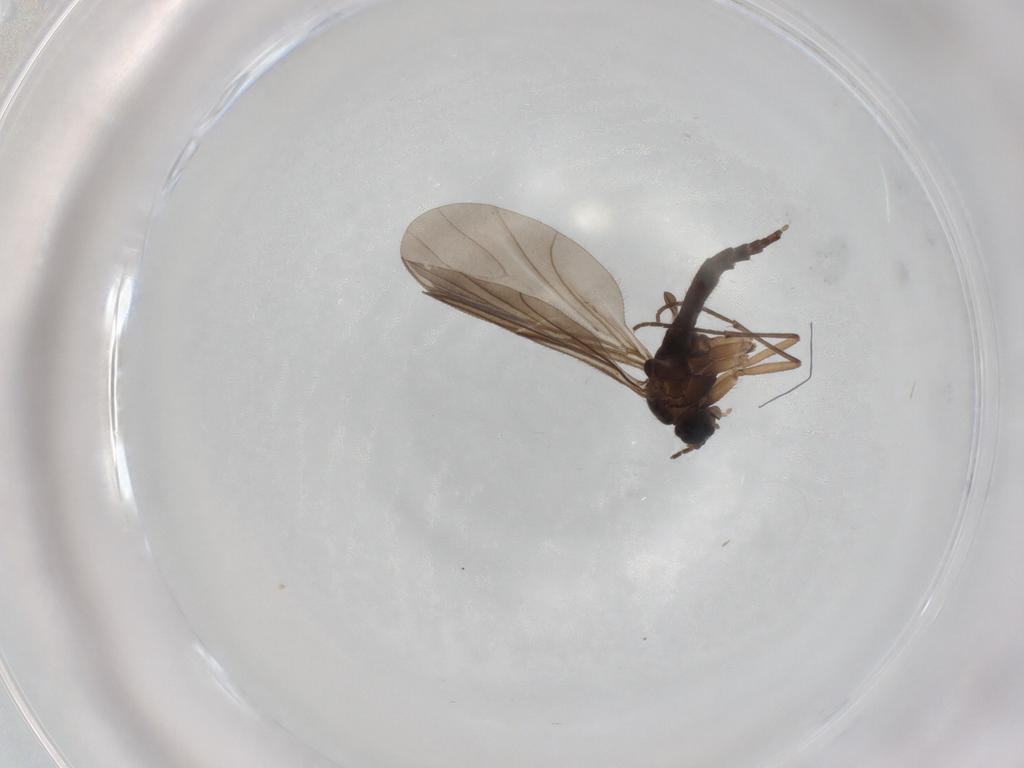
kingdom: Animalia
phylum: Arthropoda
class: Insecta
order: Diptera
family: Sciaridae
